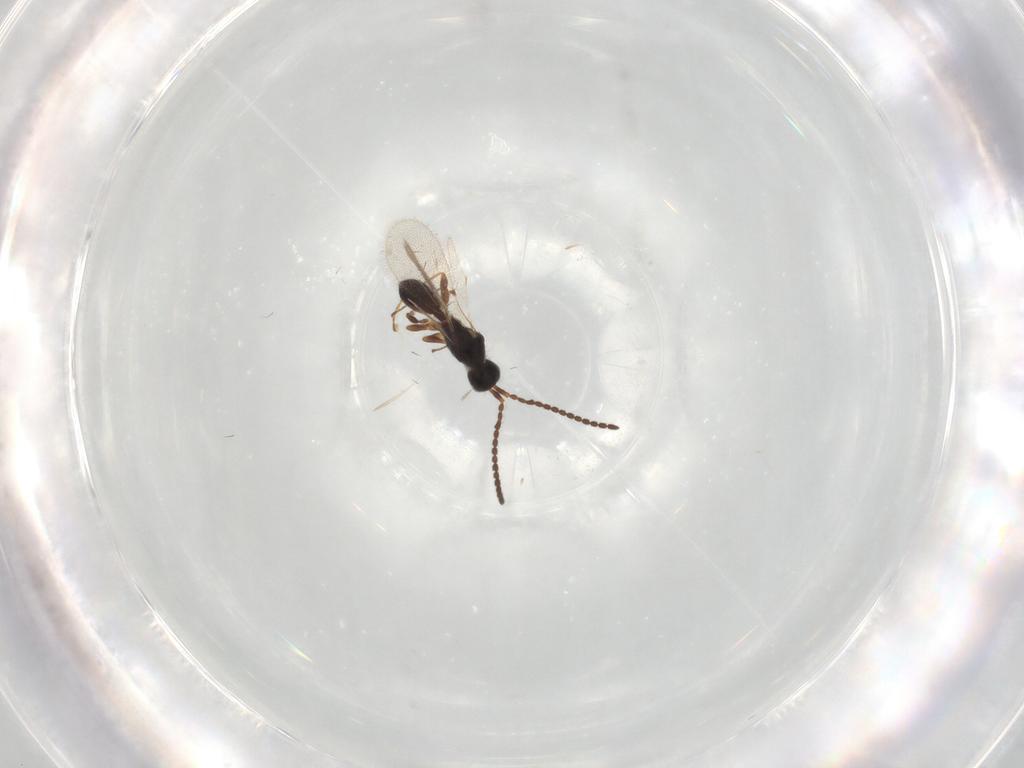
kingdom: Animalia
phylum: Arthropoda
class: Insecta
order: Hymenoptera
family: Diapriidae
